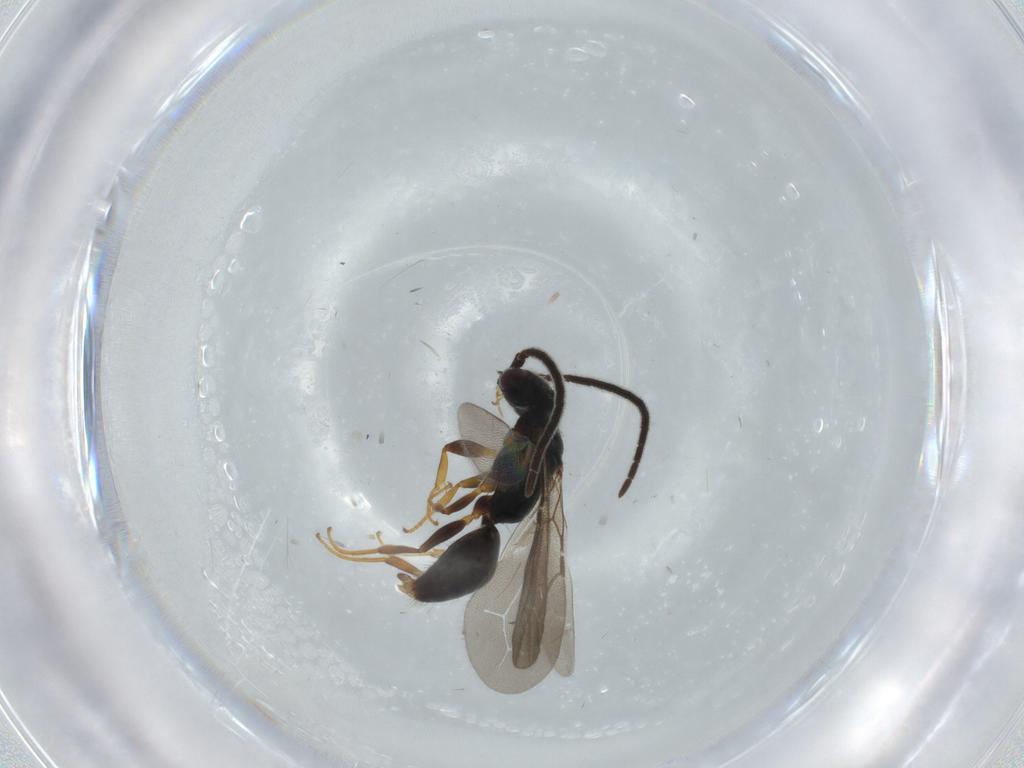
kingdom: Animalia
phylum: Arthropoda
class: Insecta
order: Hymenoptera
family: Bethylidae
